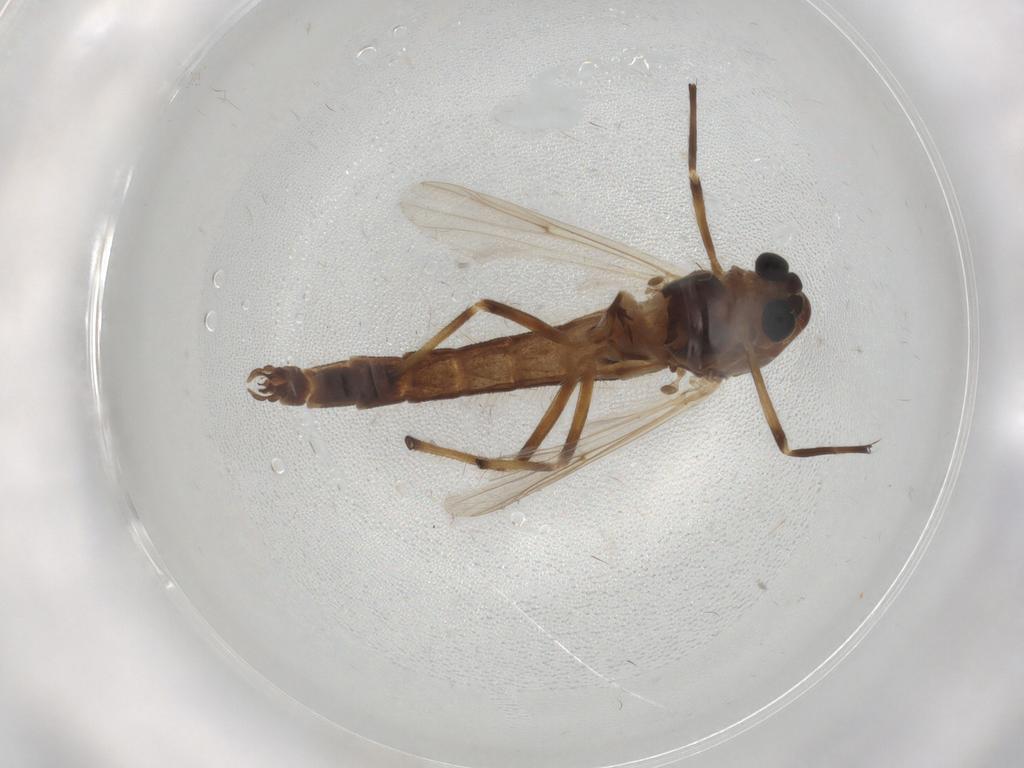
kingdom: Animalia
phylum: Arthropoda
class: Insecta
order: Diptera
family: Chironomidae
